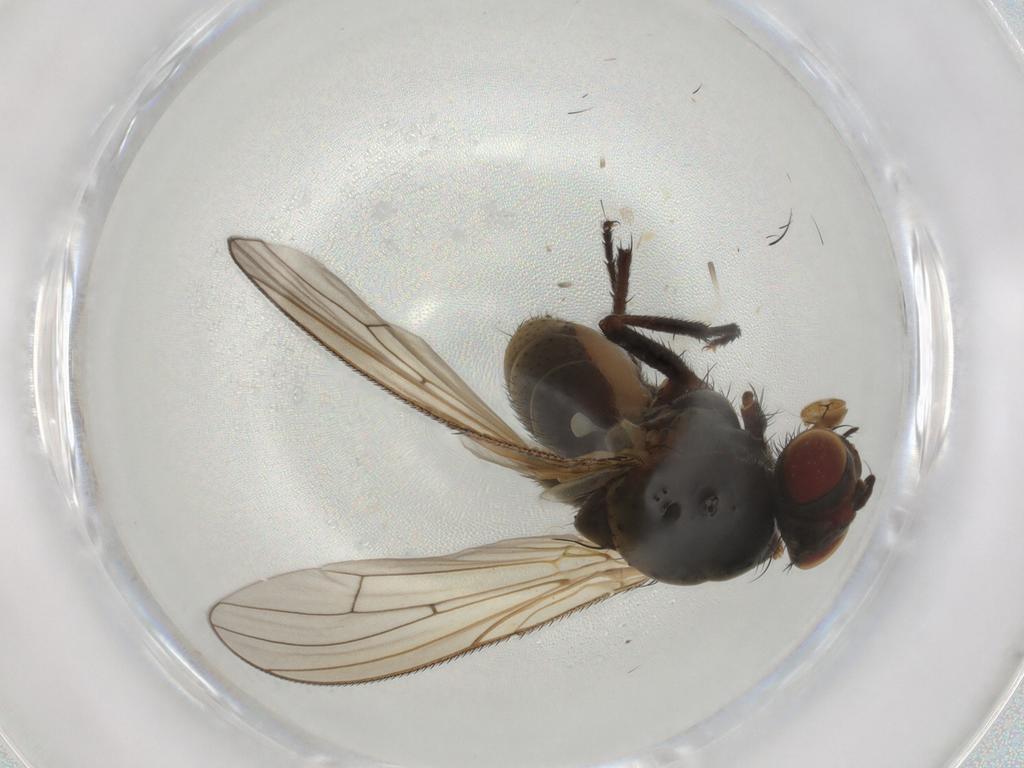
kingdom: Animalia
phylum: Arthropoda
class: Insecta
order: Diptera
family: Anthomyiidae
